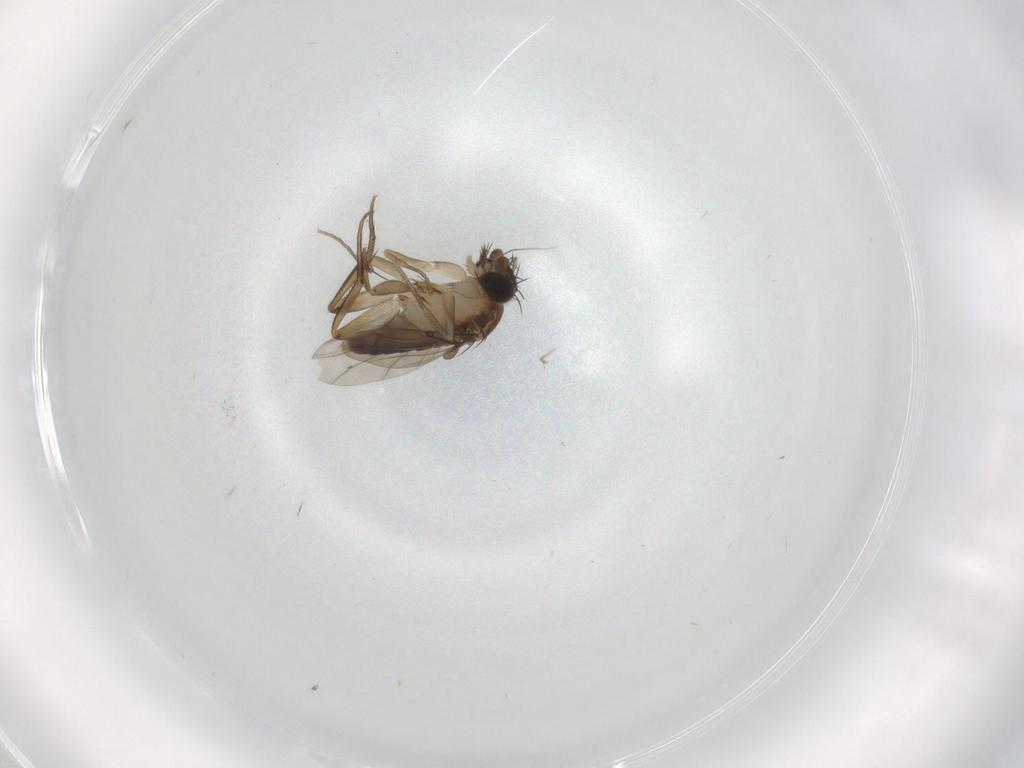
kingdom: Animalia
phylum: Arthropoda
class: Insecta
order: Diptera
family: Phoridae
